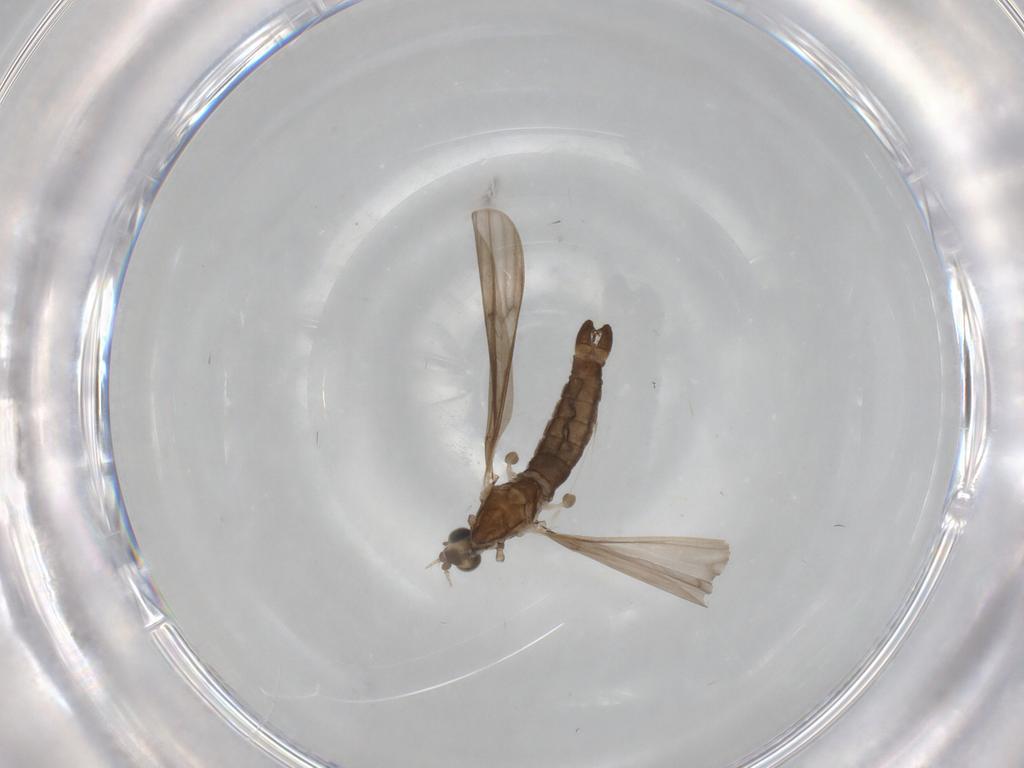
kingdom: Animalia
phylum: Arthropoda
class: Insecta
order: Diptera
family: Limoniidae
